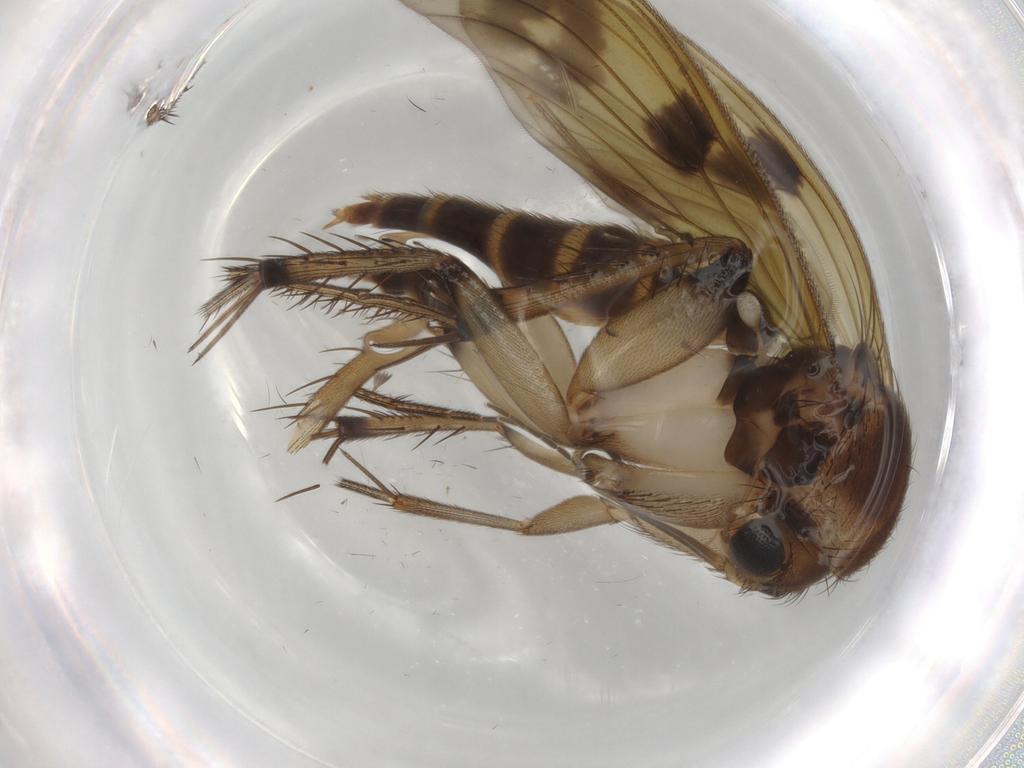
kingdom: Animalia
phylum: Arthropoda
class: Insecta
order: Diptera
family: Mycetophilidae
